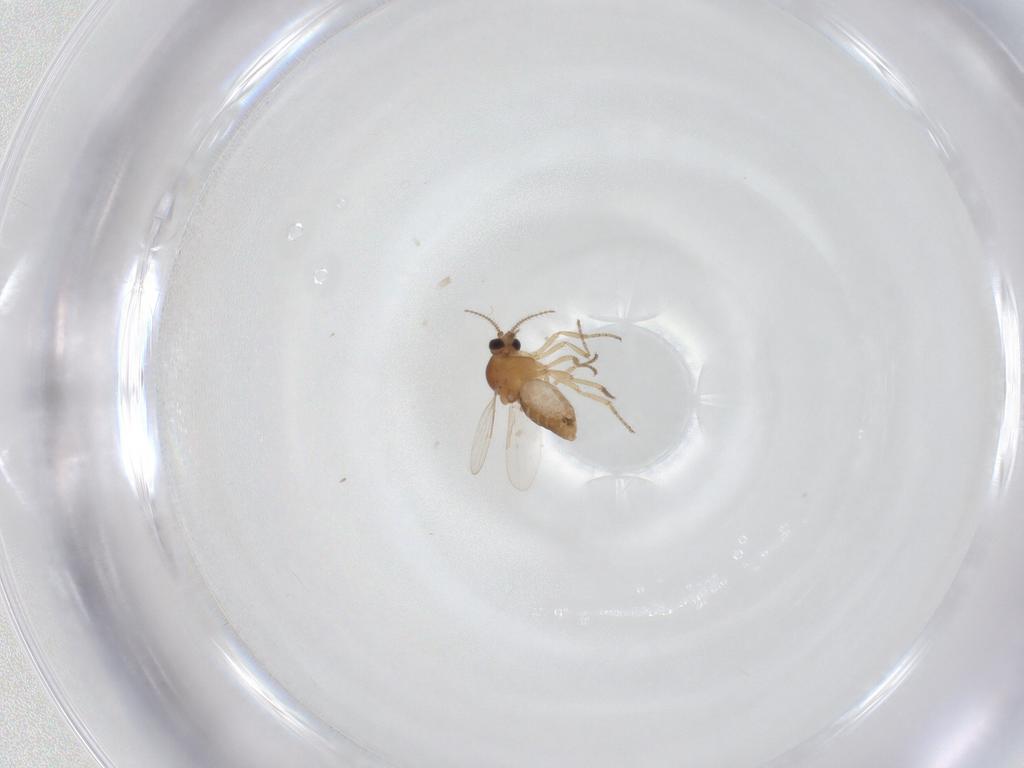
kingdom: Animalia
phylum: Arthropoda
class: Insecta
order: Diptera
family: Ceratopogonidae
